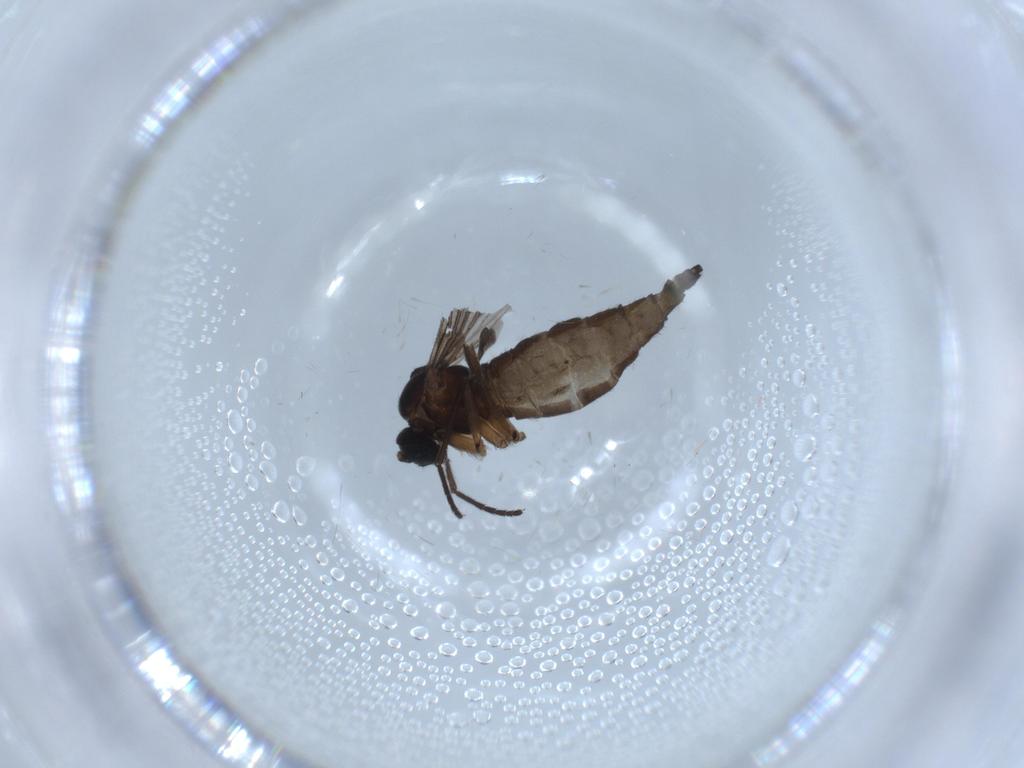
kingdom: Animalia
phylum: Arthropoda
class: Insecta
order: Diptera
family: Sciaridae
